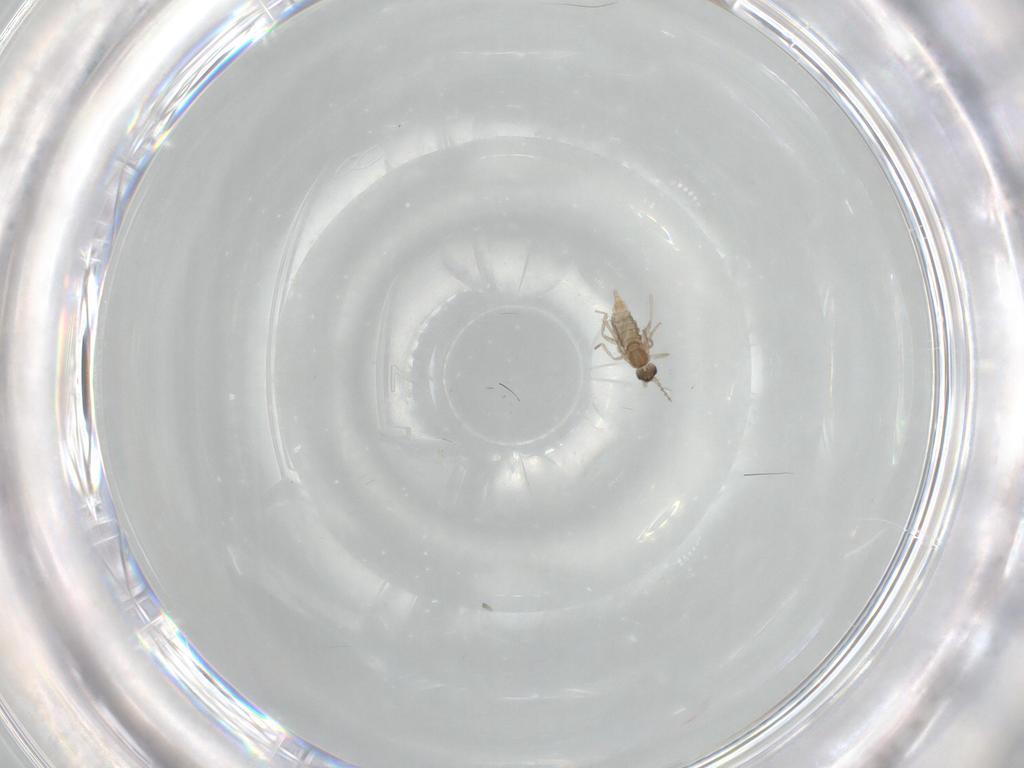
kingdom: Animalia
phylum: Arthropoda
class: Insecta
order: Diptera
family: Cecidomyiidae
